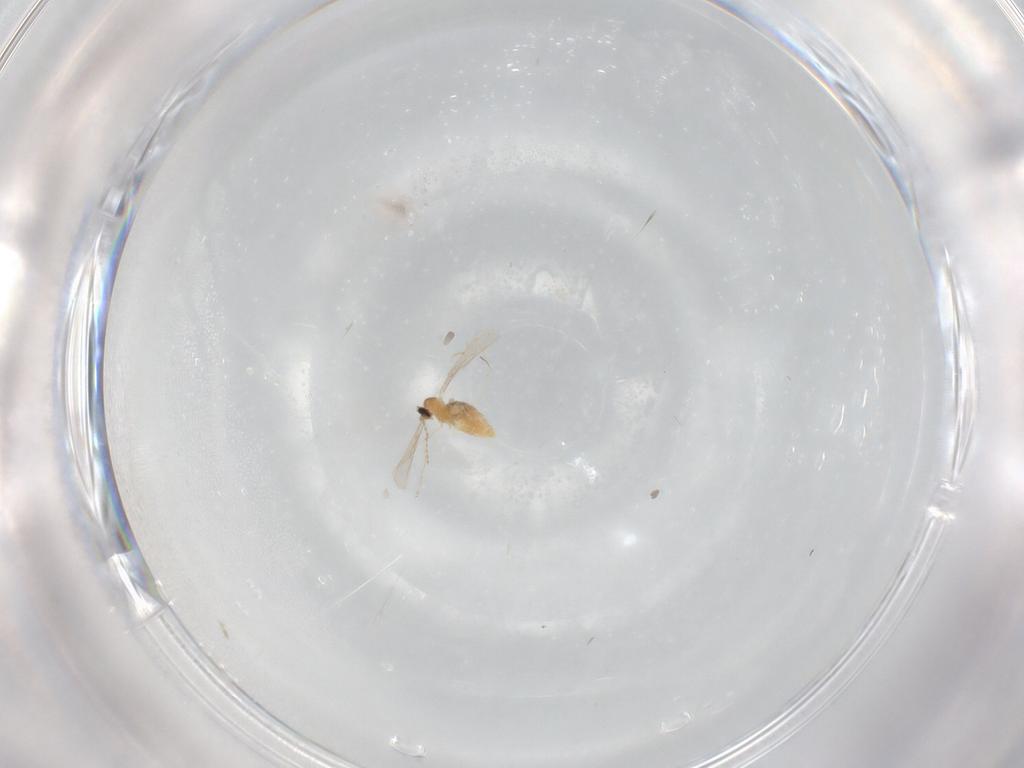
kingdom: Animalia
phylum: Arthropoda
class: Insecta
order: Diptera
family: Cecidomyiidae
